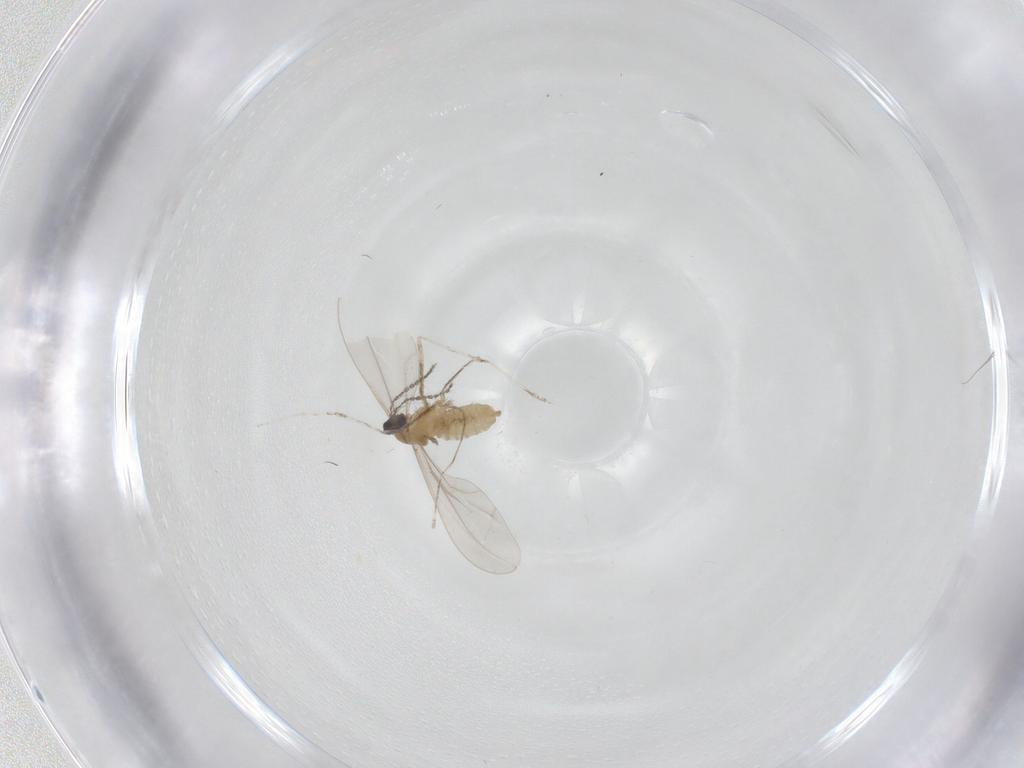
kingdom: Animalia
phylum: Arthropoda
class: Insecta
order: Diptera
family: Cecidomyiidae
